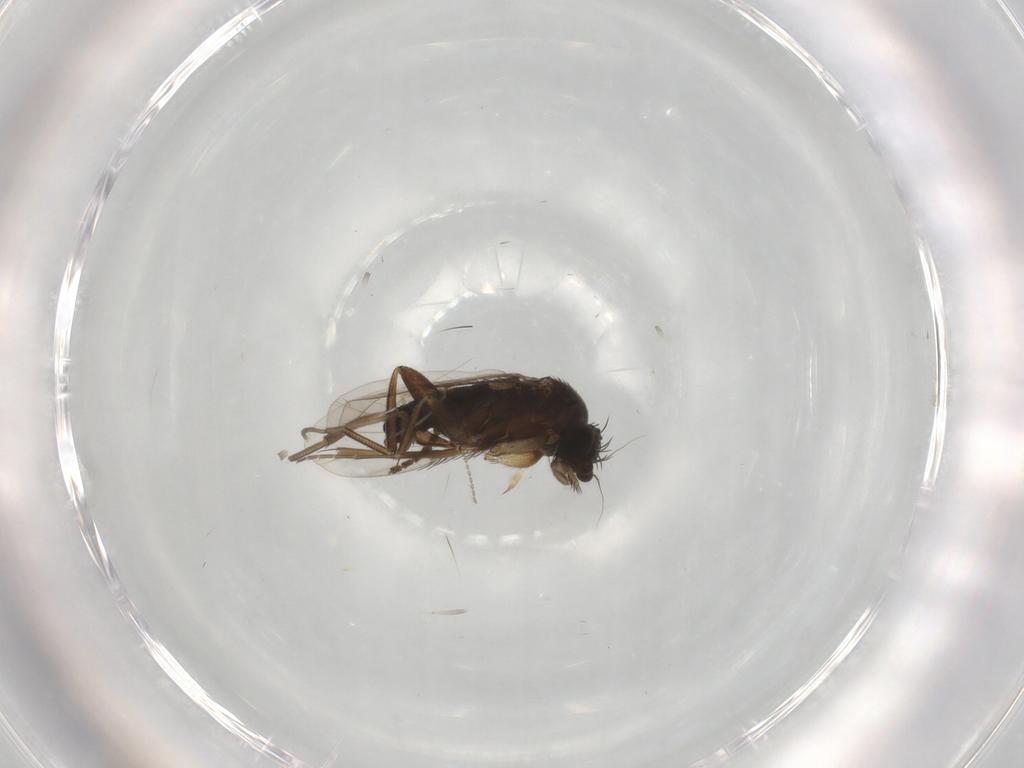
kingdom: Animalia
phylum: Arthropoda
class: Insecta
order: Diptera
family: Phoridae
